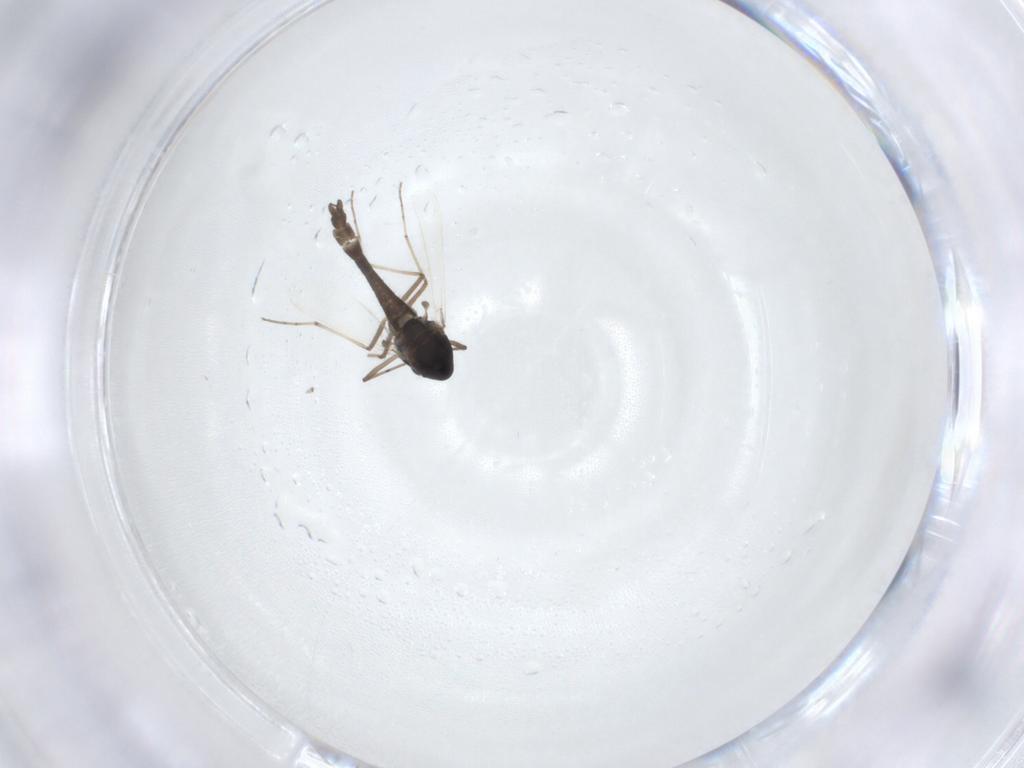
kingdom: Animalia
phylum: Arthropoda
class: Insecta
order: Diptera
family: Chironomidae
